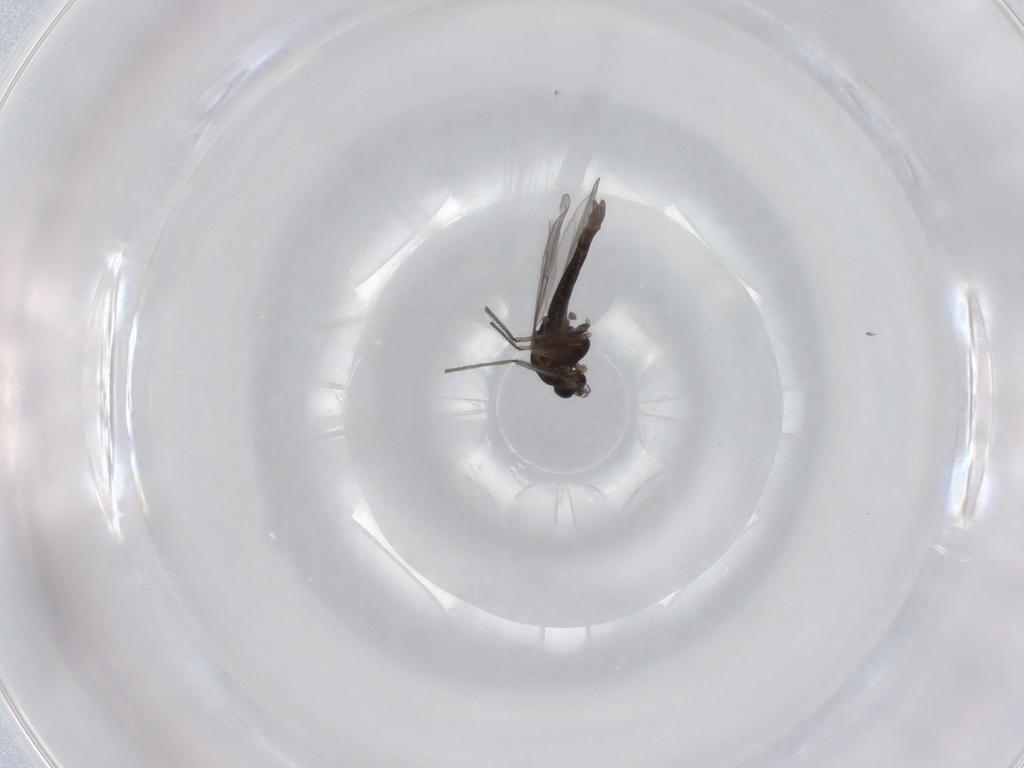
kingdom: Animalia
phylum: Arthropoda
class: Insecta
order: Diptera
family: Chironomidae
